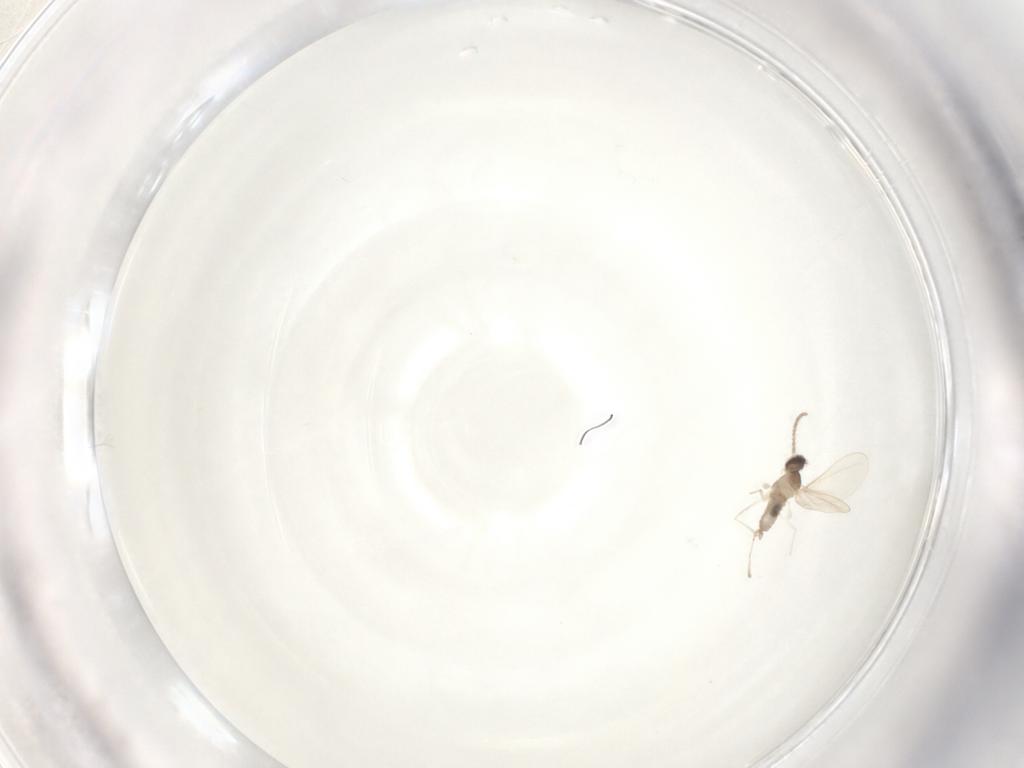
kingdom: Animalia
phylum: Arthropoda
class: Insecta
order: Diptera
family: Cecidomyiidae
